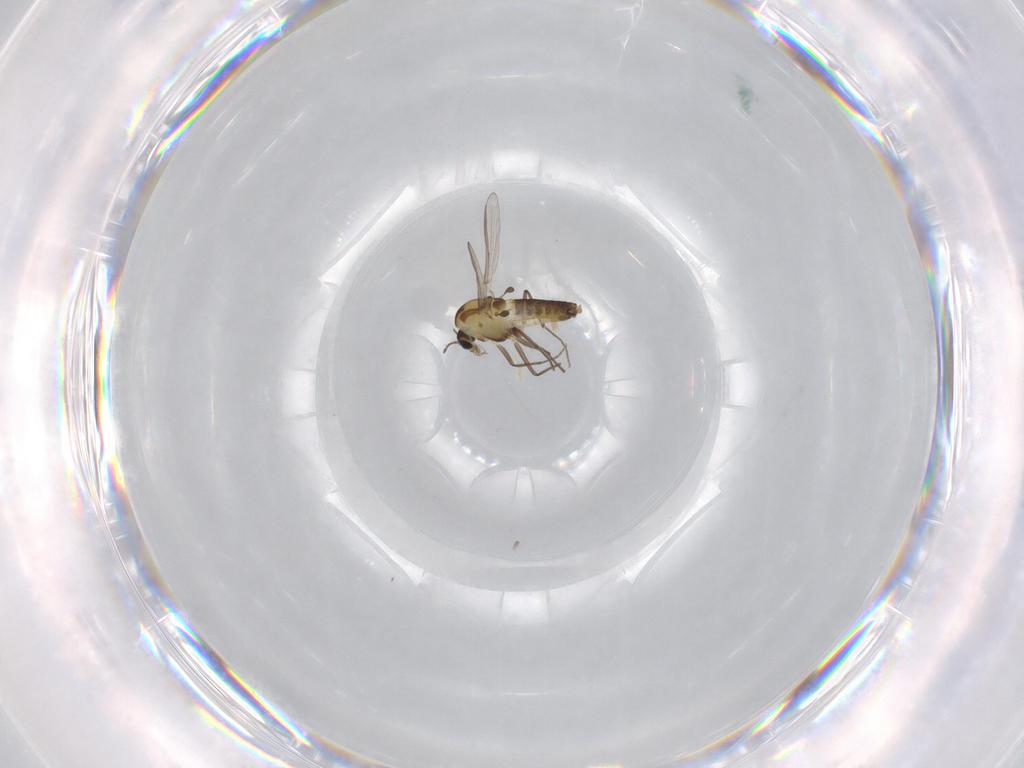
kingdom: Animalia
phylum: Arthropoda
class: Insecta
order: Diptera
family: Chironomidae
